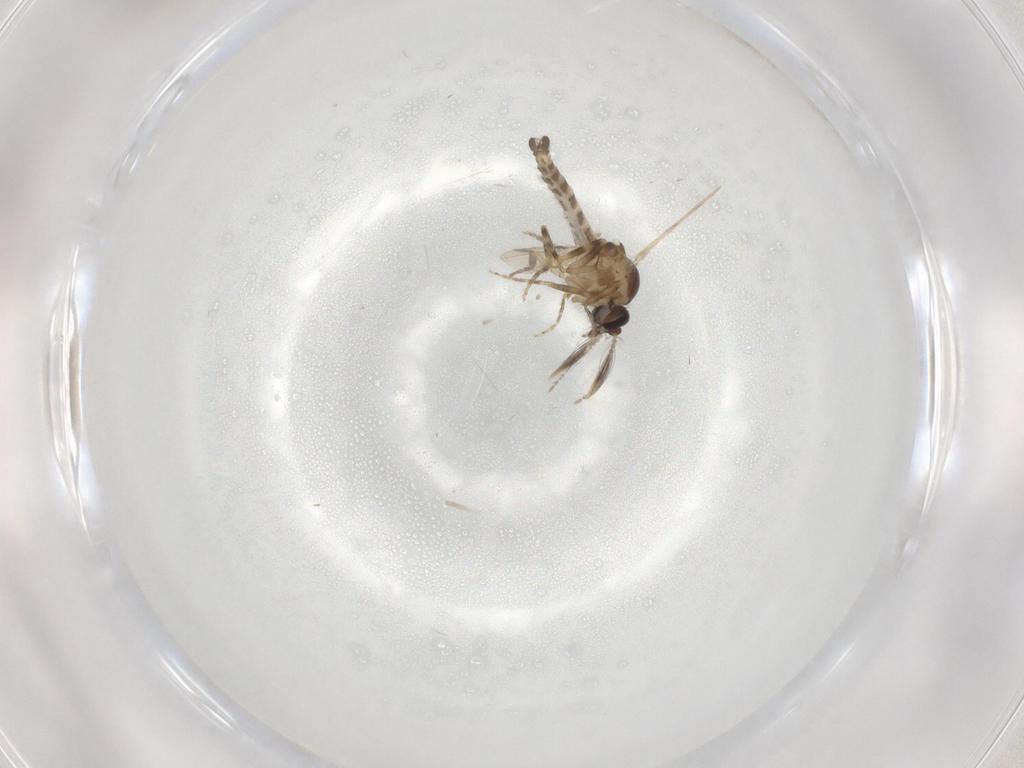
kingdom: Animalia
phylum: Arthropoda
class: Insecta
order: Diptera
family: Ceratopogonidae
